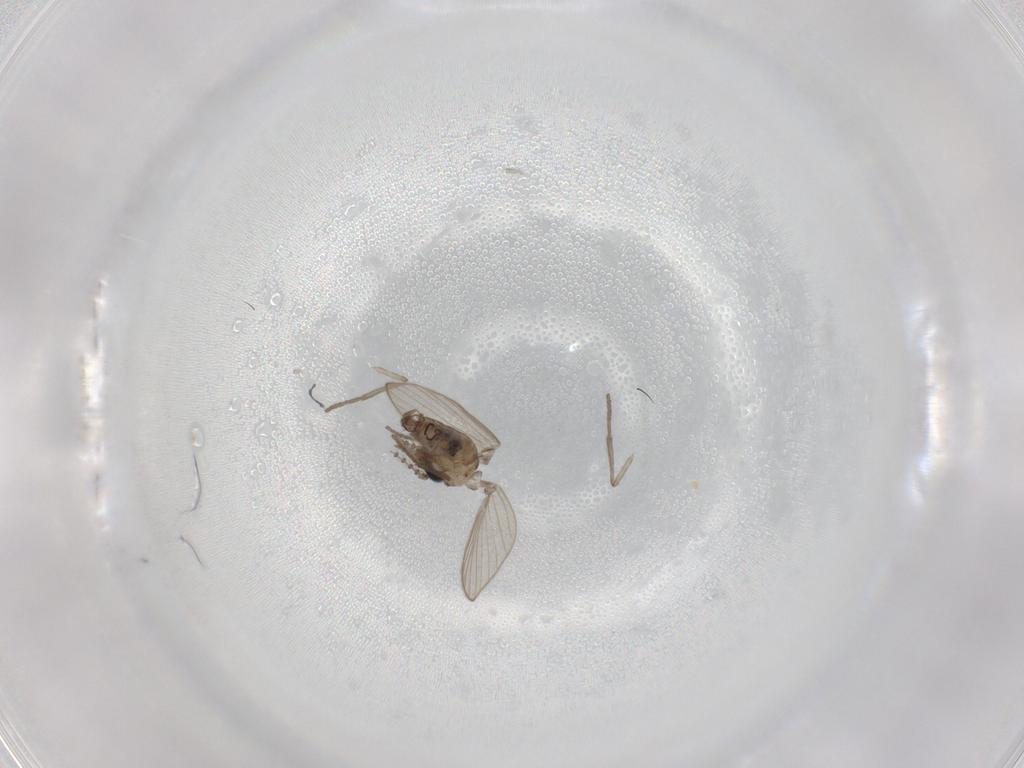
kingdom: Animalia
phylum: Arthropoda
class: Insecta
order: Diptera
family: Psychodidae
